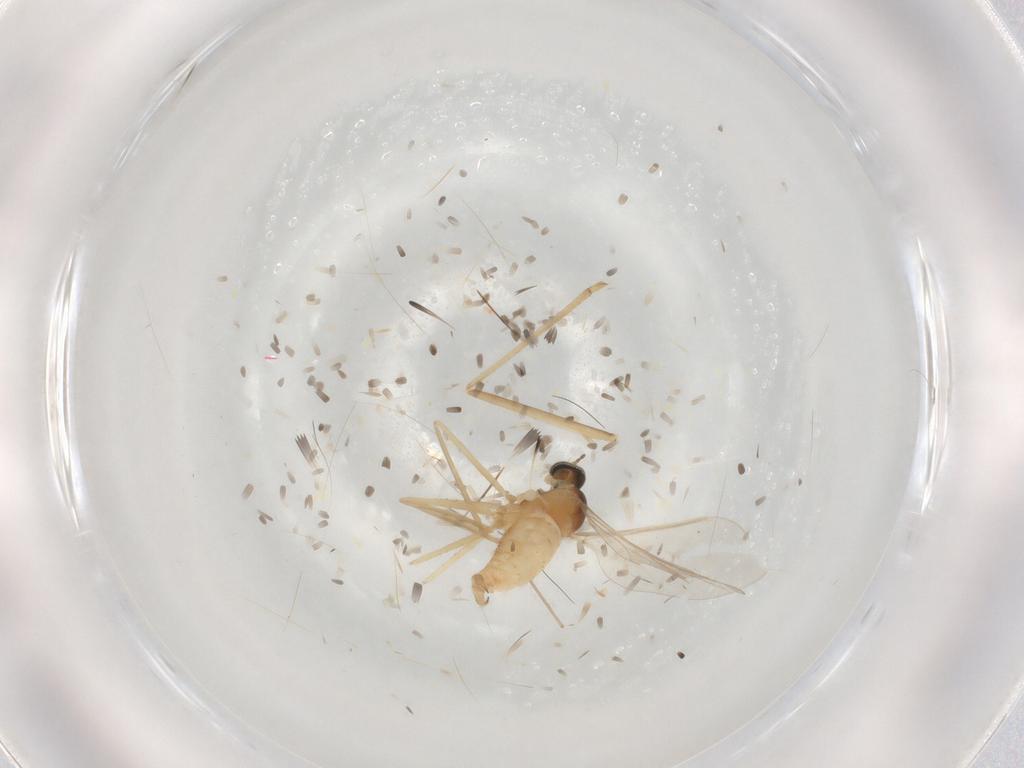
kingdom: Animalia
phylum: Arthropoda
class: Insecta
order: Diptera
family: Cecidomyiidae
